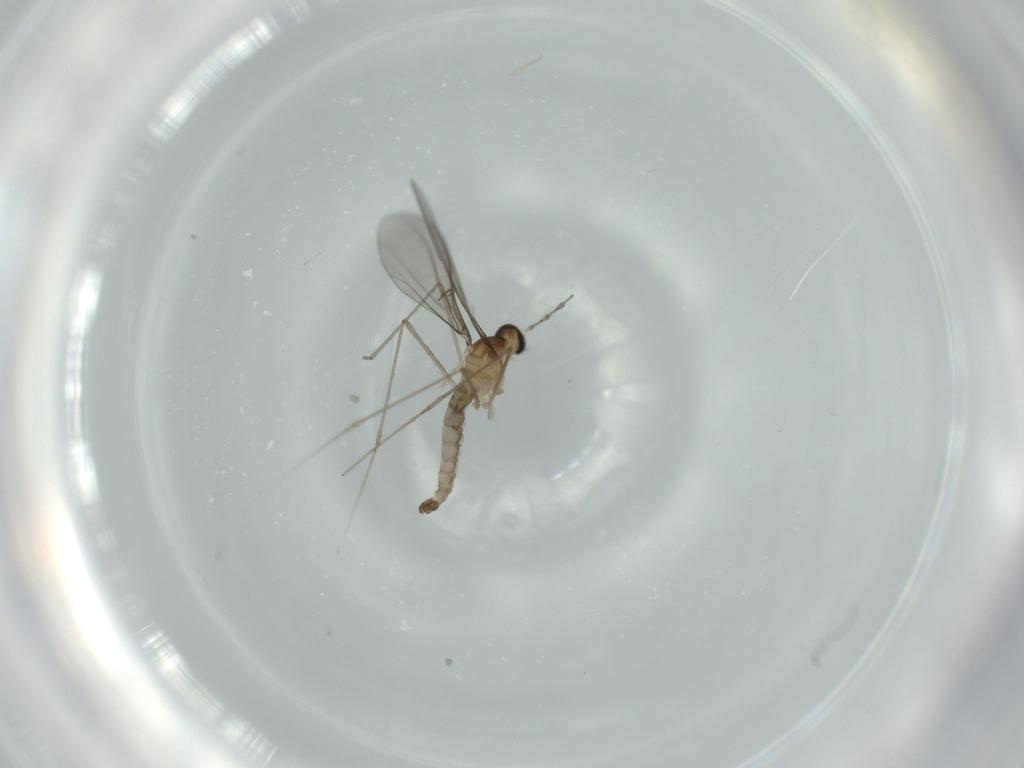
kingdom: Animalia
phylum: Arthropoda
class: Insecta
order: Diptera
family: Cecidomyiidae
